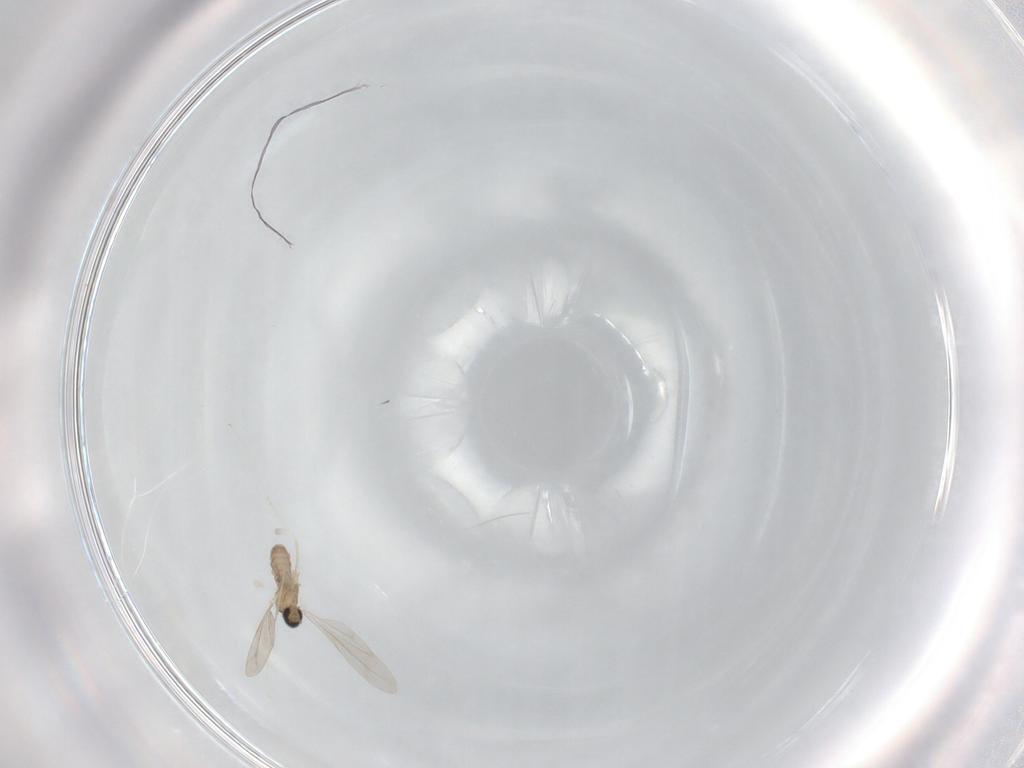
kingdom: Animalia
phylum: Arthropoda
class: Insecta
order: Diptera
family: Cecidomyiidae
